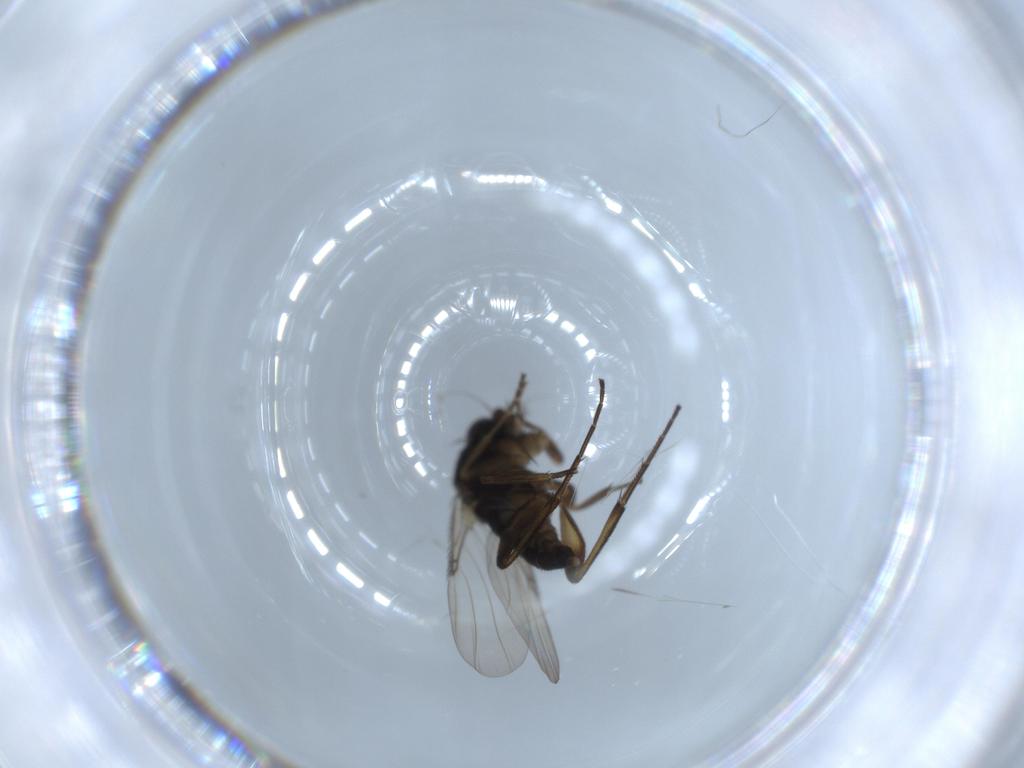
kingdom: Animalia
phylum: Arthropoda
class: Insecta
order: Diptera
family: Phoridae
